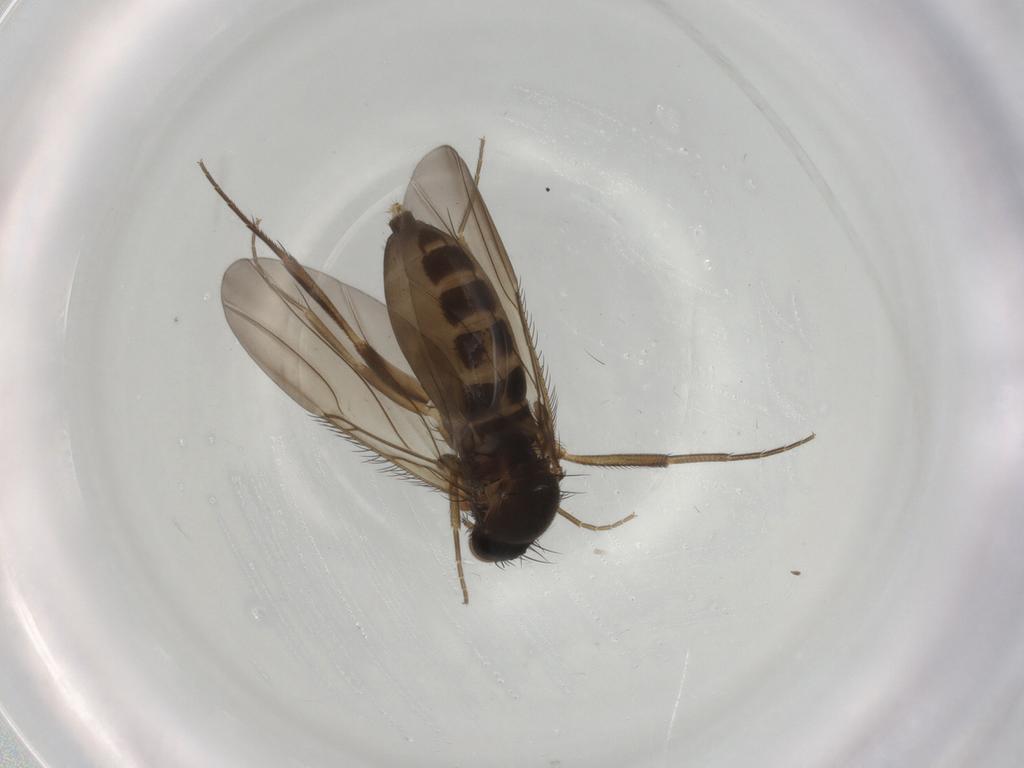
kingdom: Animalia
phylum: Arthropoda
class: Insecta
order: Diptera
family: Phoridae
